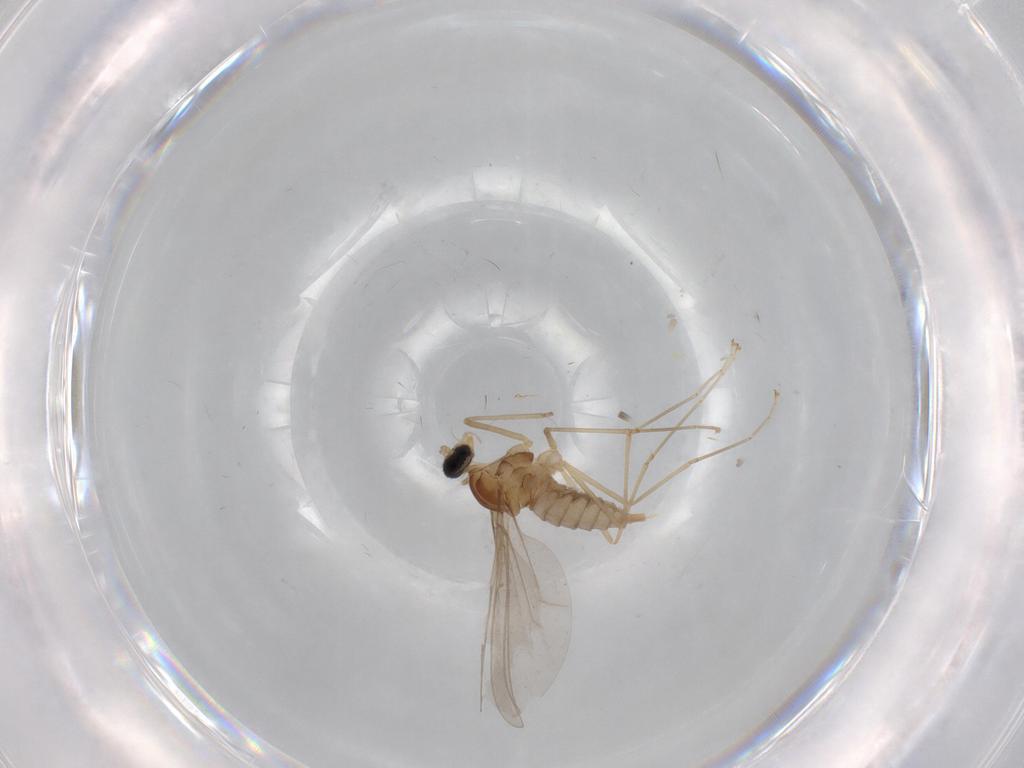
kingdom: Animalia
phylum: Arthropoda
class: Insecta
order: Diptera
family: Cecidomyiidae
